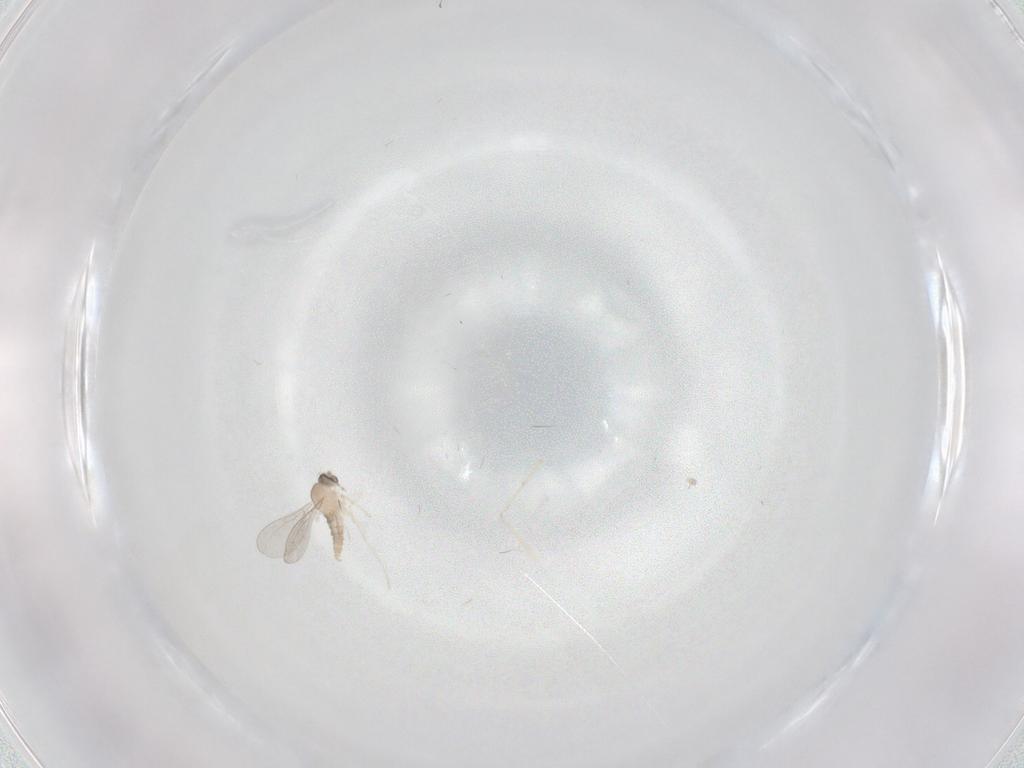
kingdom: Animalia
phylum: Arthropoda
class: Insecta
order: Diptera
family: Cecidomyiidae
